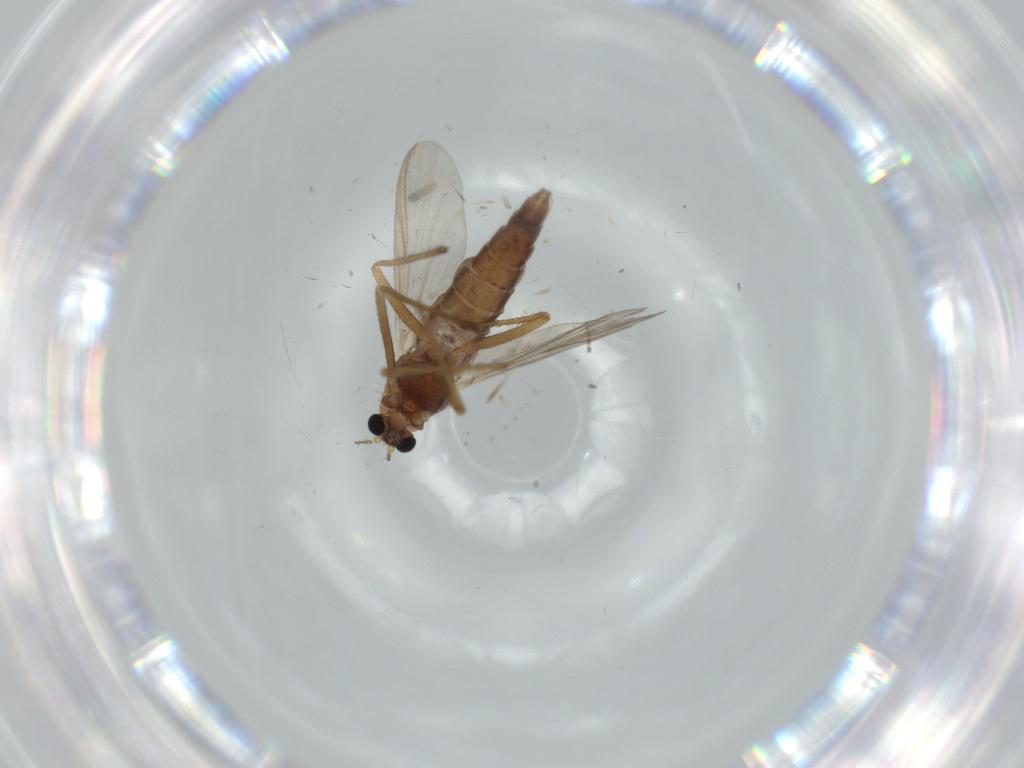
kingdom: Animalia
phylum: Arthropoda
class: Insecta
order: Diptera
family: Chironomidae
